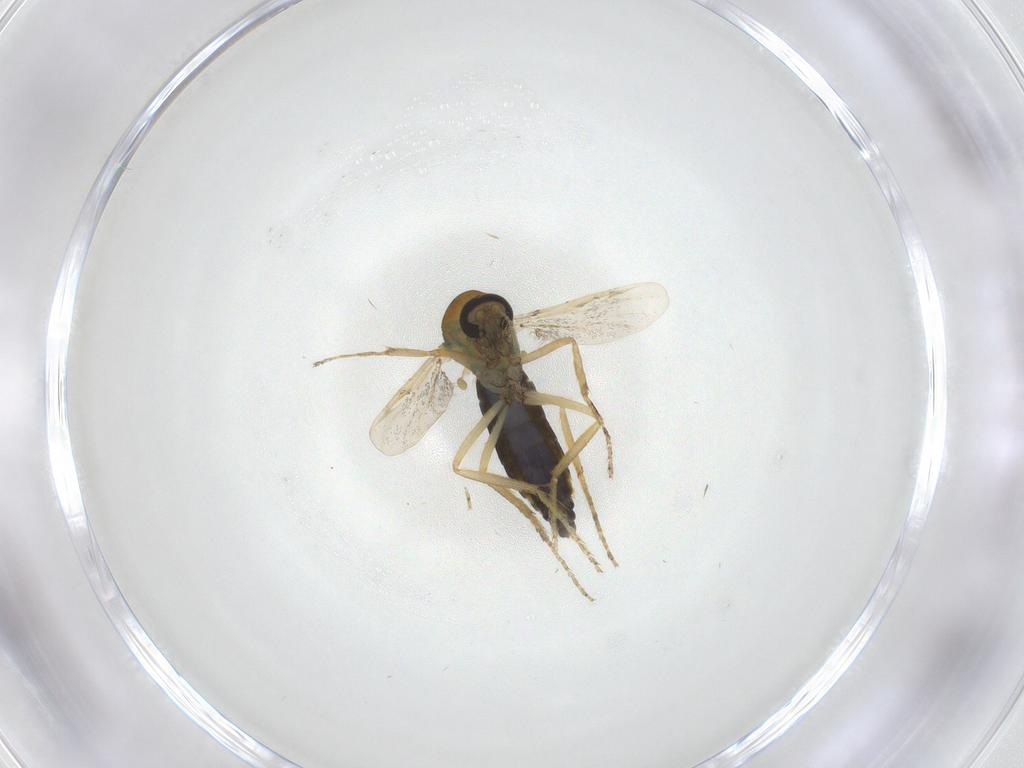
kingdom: Animalia
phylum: Arthropoda
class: Insecta
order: Diptera
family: Ceratopogonidae
